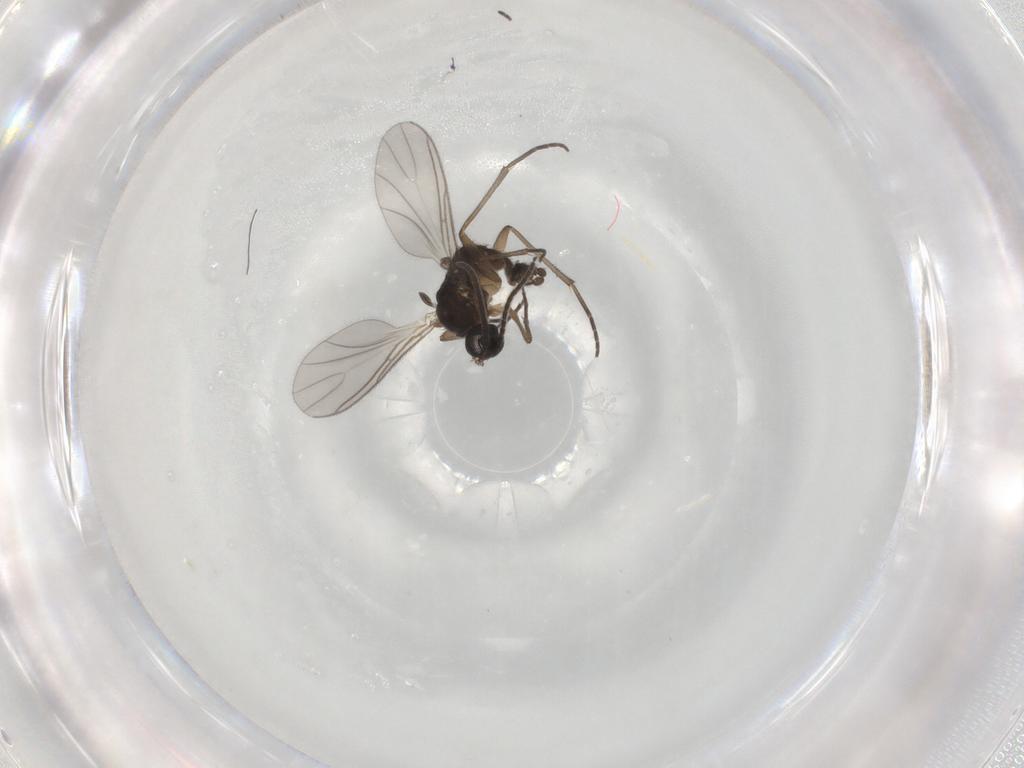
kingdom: Animalia
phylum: Arthropoda
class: Insecta
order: Diptera
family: Sciaridae
